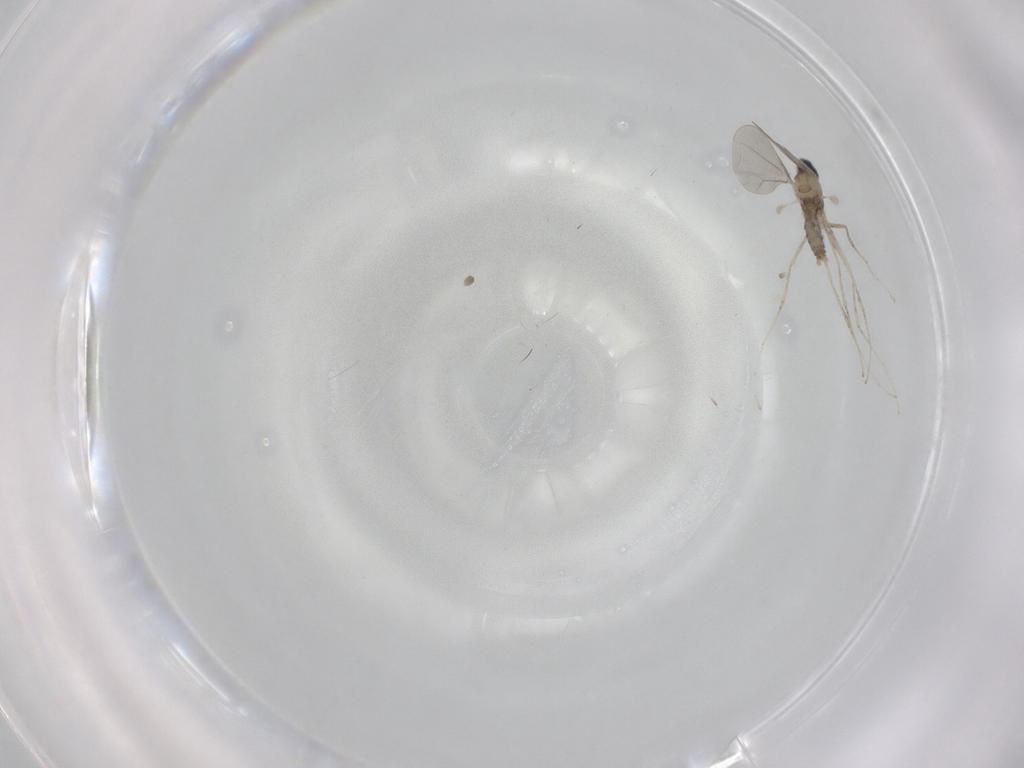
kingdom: Animalia
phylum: Arthropoda
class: Insecta
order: Diptera
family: Cecidomyiidae
